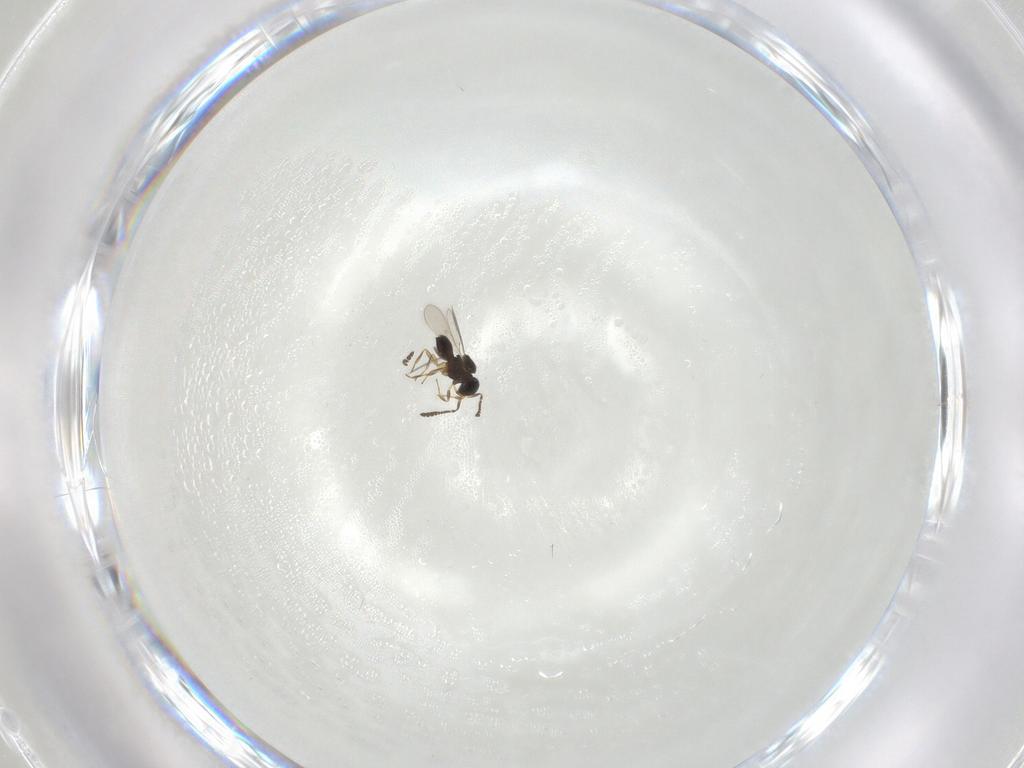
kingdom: Animalia
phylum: Arthropoda
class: Insecta
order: Hymenoptera
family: Scelionidae
